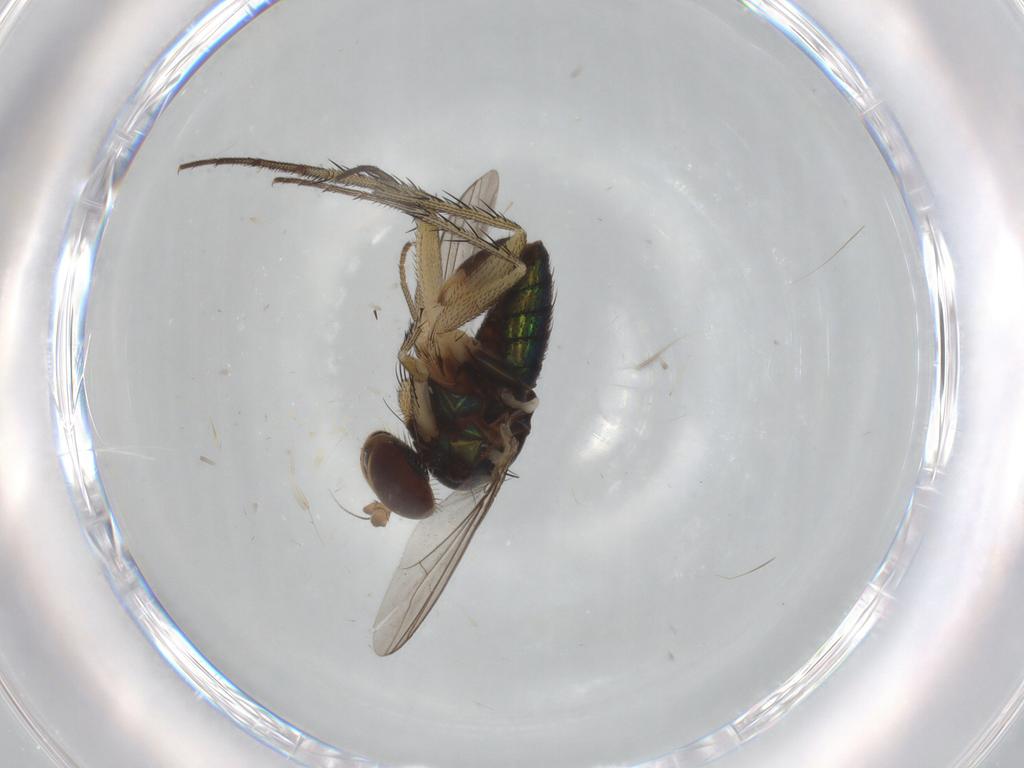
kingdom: Animalia
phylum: Arthropoda
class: Insecta
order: Diptera
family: Dolichopodidae
